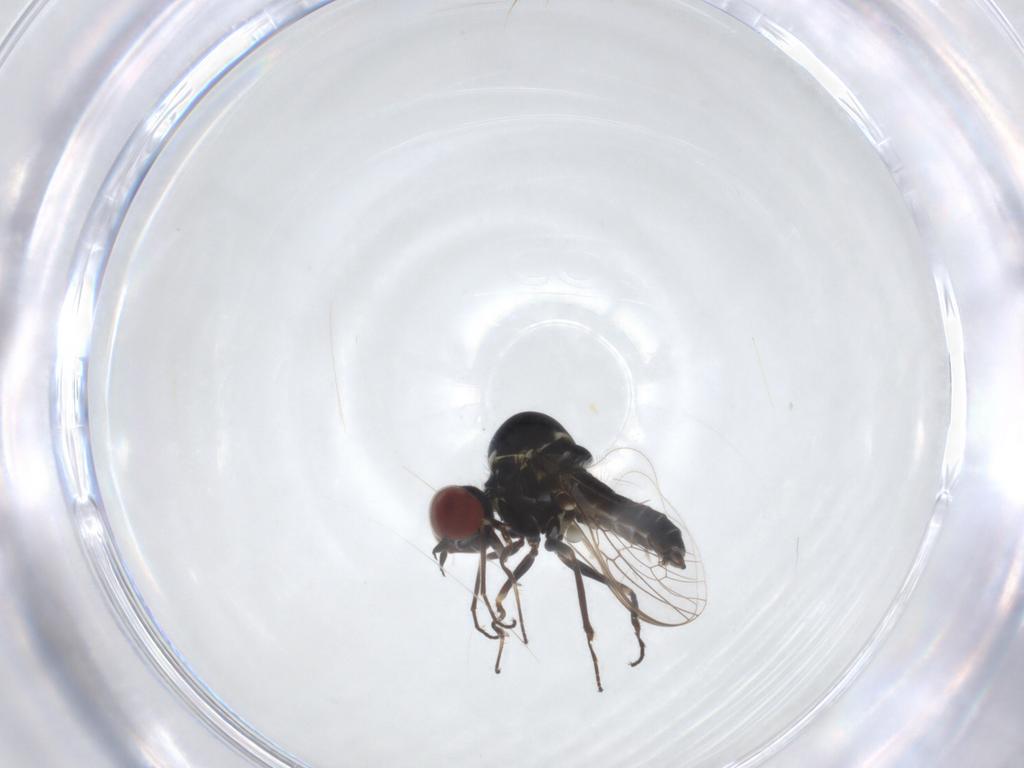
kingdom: Animalia
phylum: Arthropoda
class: Insecta
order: Diptera
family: Bombyliidae
